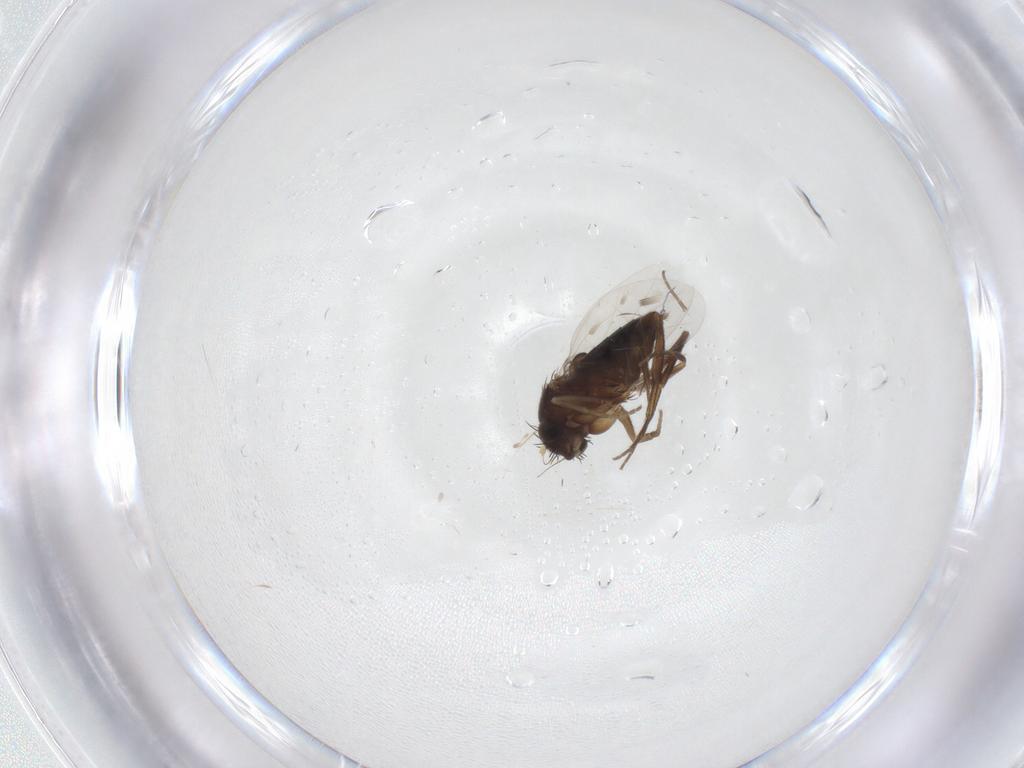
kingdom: Animalia
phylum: Arthropoda
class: Insecta
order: Diptera
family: Phoridae
